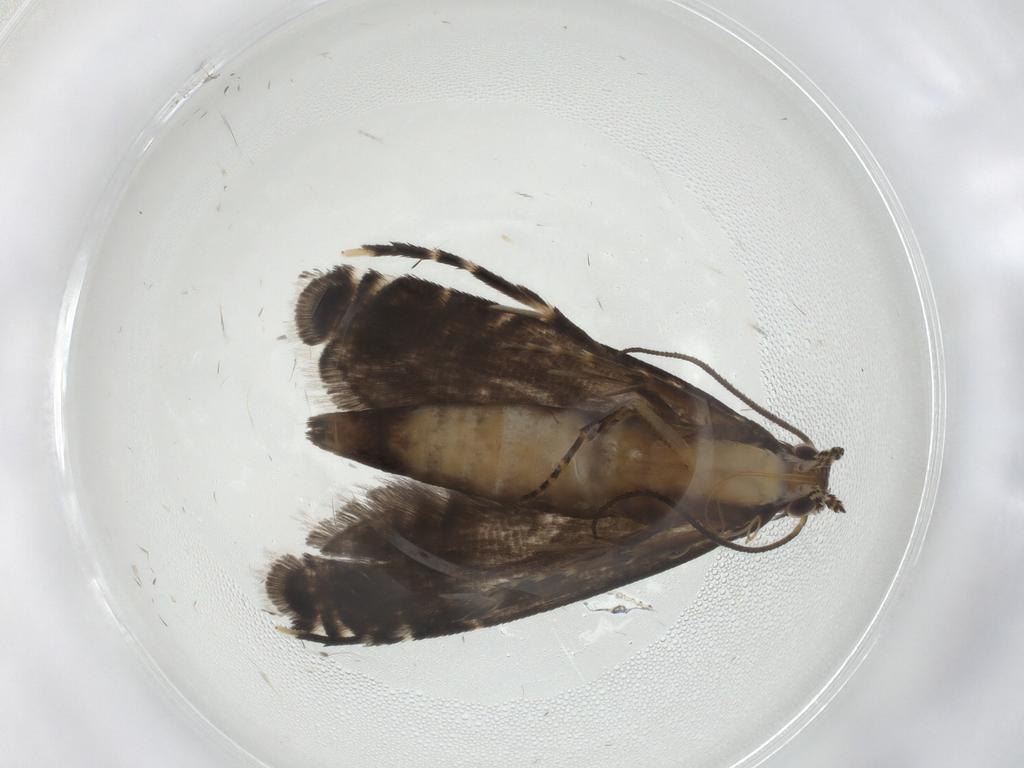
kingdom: Animalia
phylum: Arthropoda
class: Insecta
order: Lepidoptera
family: Glyphipterigidae
